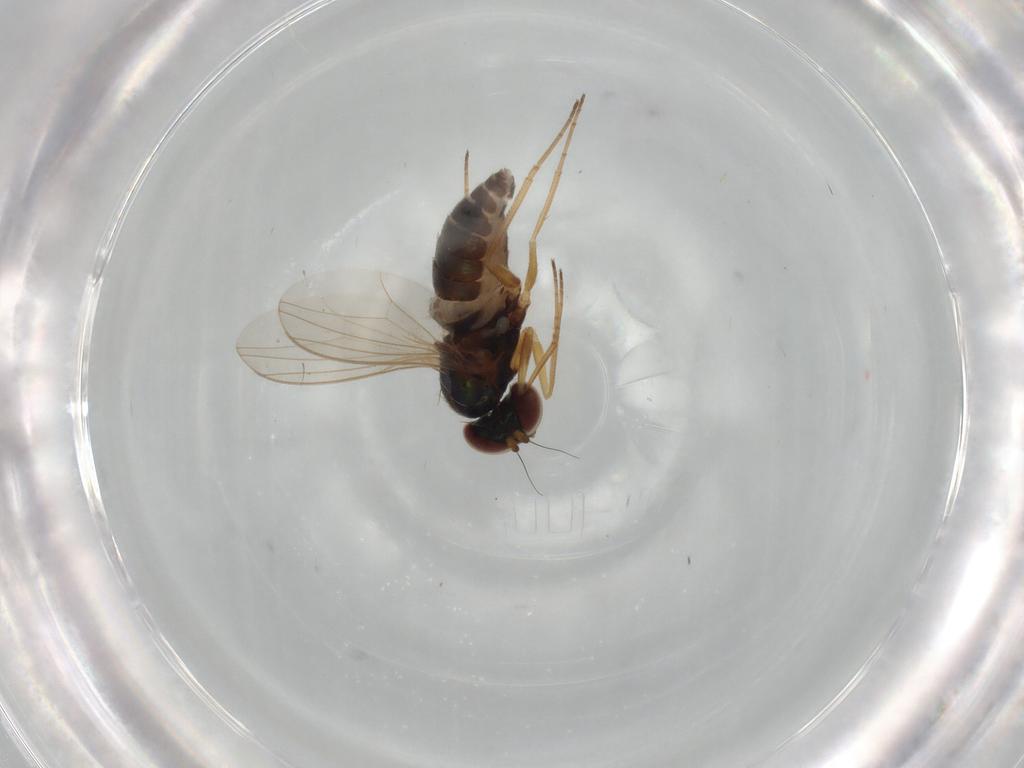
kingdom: Animalia
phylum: Arthropoda
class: Insecta
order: Diptera
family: Dolichopodidae
